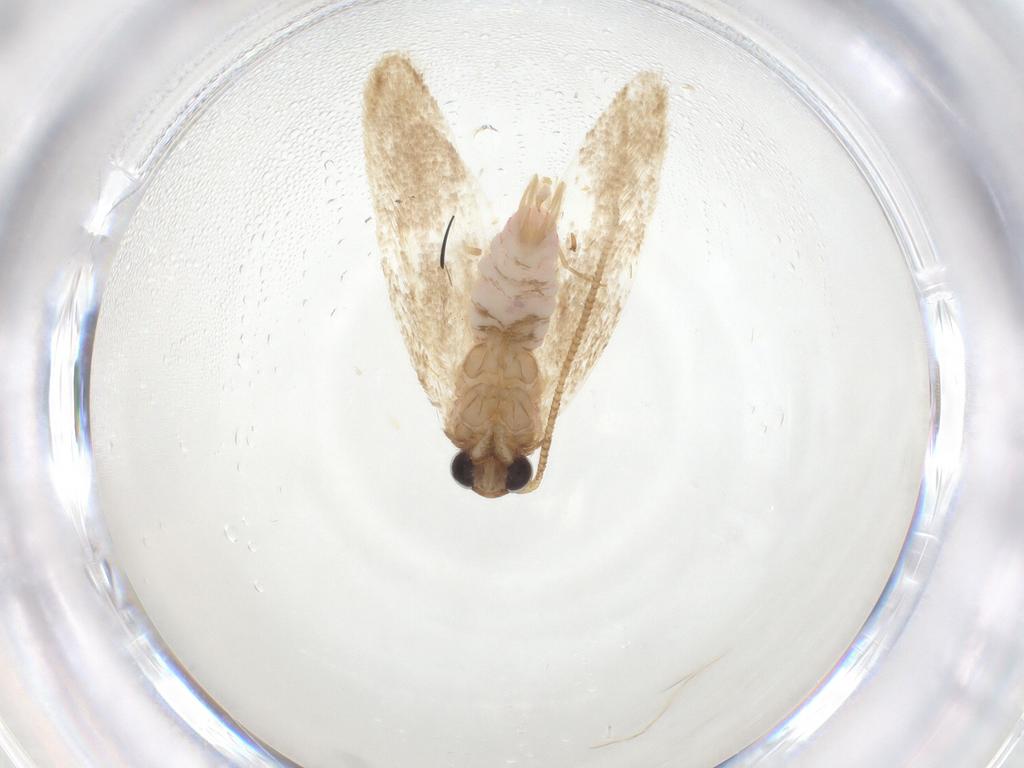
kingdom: Animalia
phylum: Arthropoda
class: Insecta
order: Lepidoptera
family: Autostichidae
